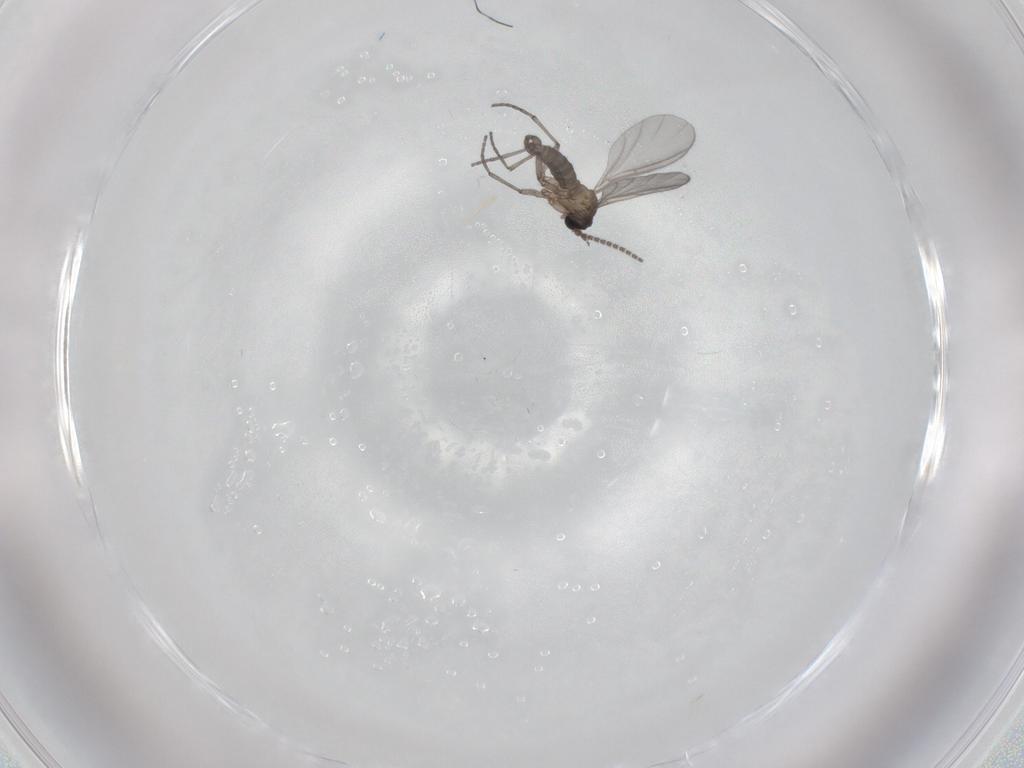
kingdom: Animalia
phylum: Arthropoda
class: Insecta
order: Diptera
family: Sciaridae
